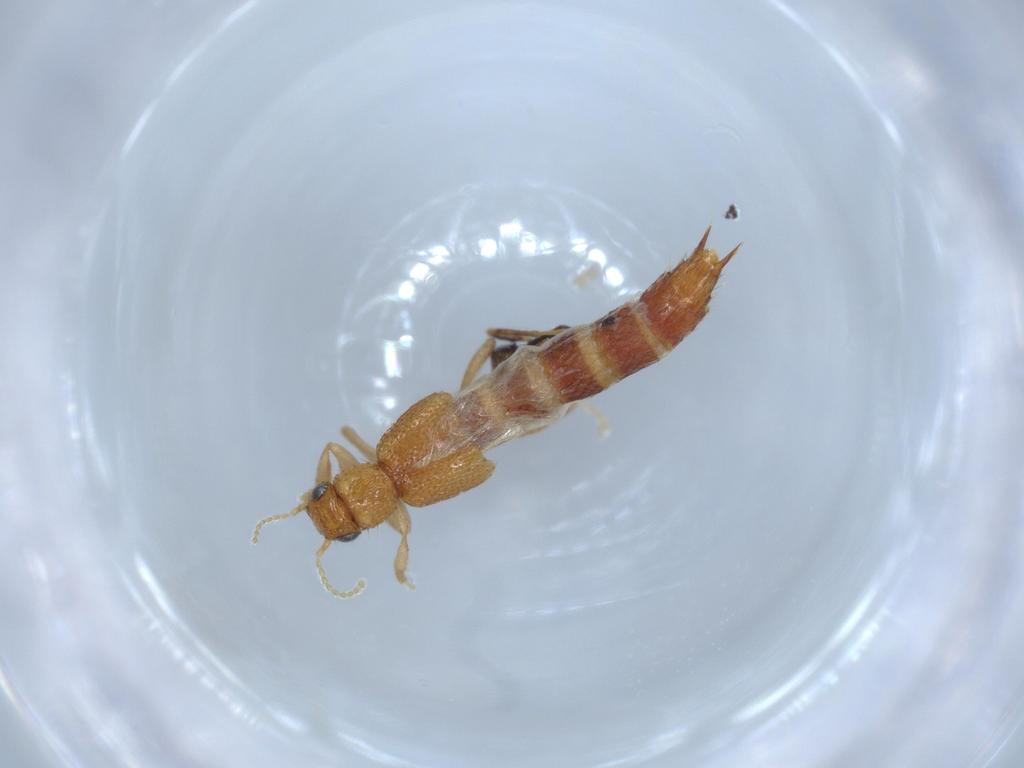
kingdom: Animalia
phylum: Arthropoda
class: Insecta
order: Coleoptera
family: Staphylinidae
